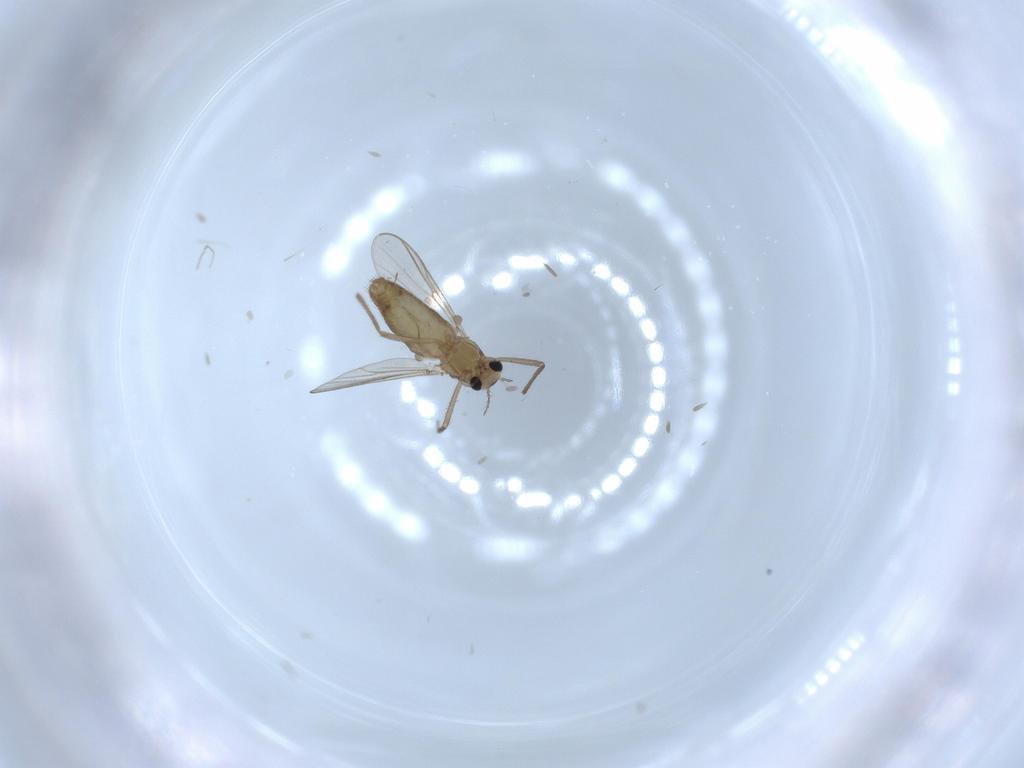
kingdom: Animalia
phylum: Arthropoda
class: Insecta
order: Diptera
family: Chironomidae
